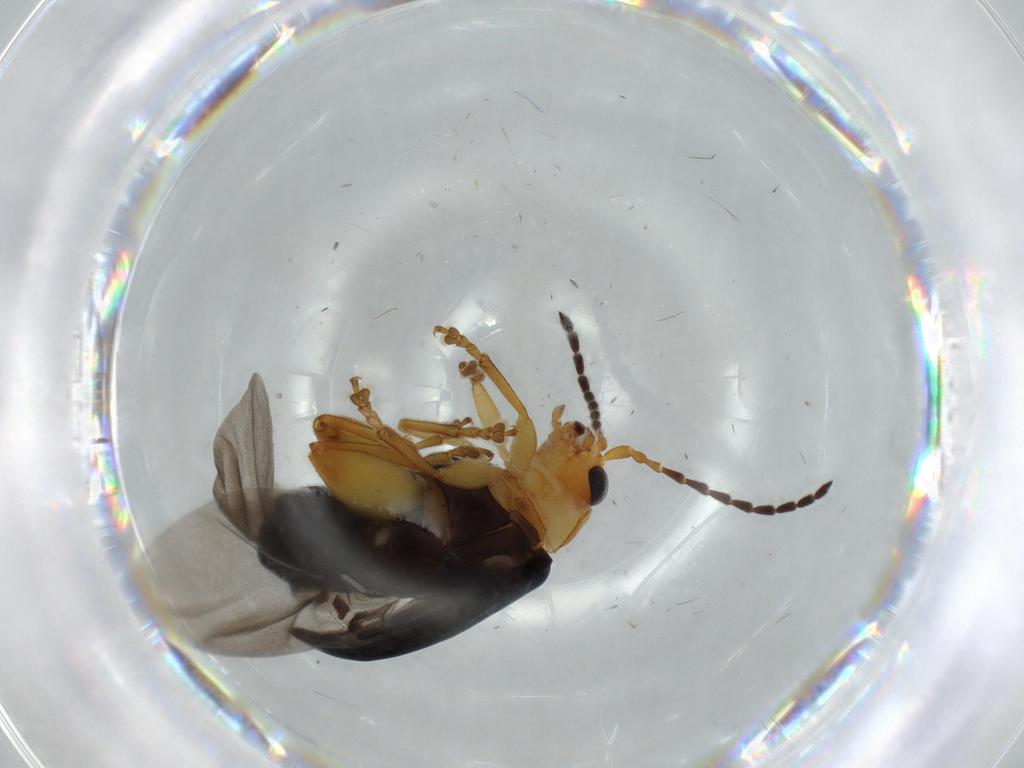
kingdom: Animalia
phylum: Arthropoda
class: Insecta
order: Coleoptera
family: Chrysomelidae
